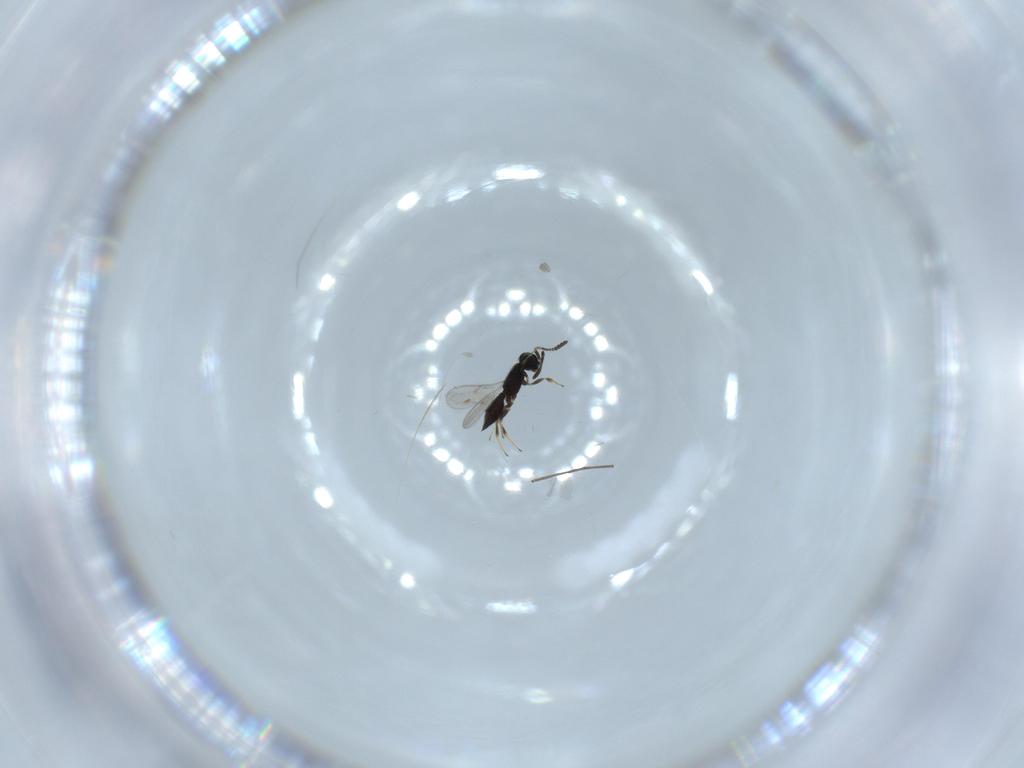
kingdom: Animalia
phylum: Arthropoda
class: Insecta
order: Hymenoptera
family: Scelionidae
